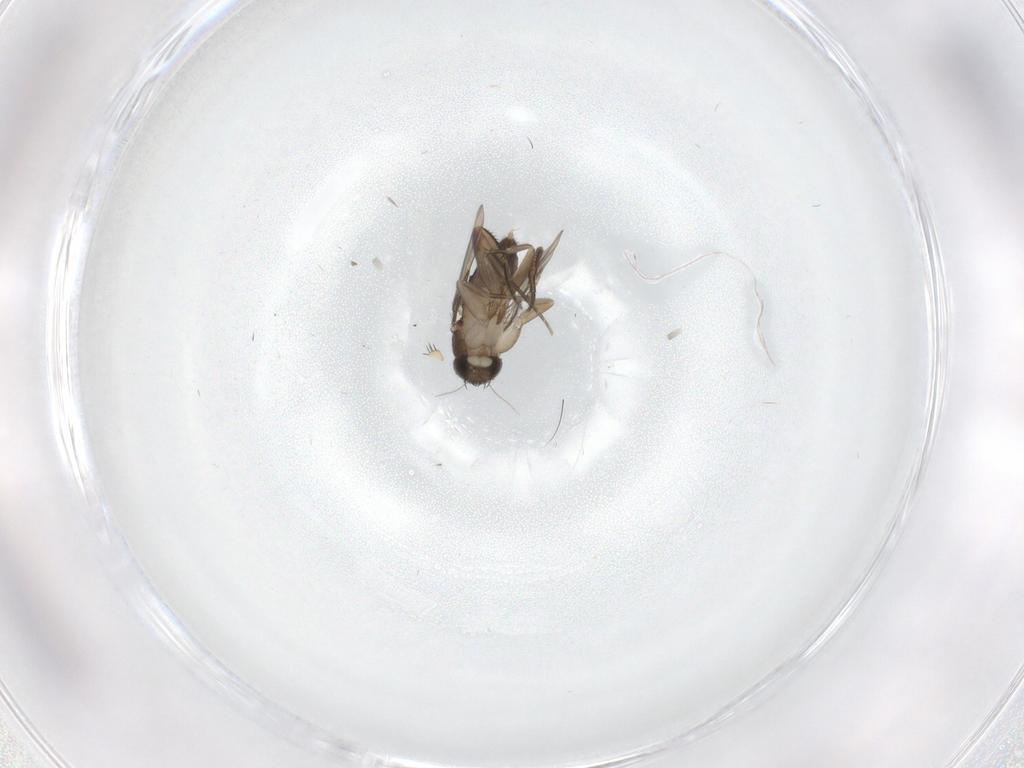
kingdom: Animalia
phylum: Arthropoda
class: Insecta
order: Diptera
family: Phoridae
